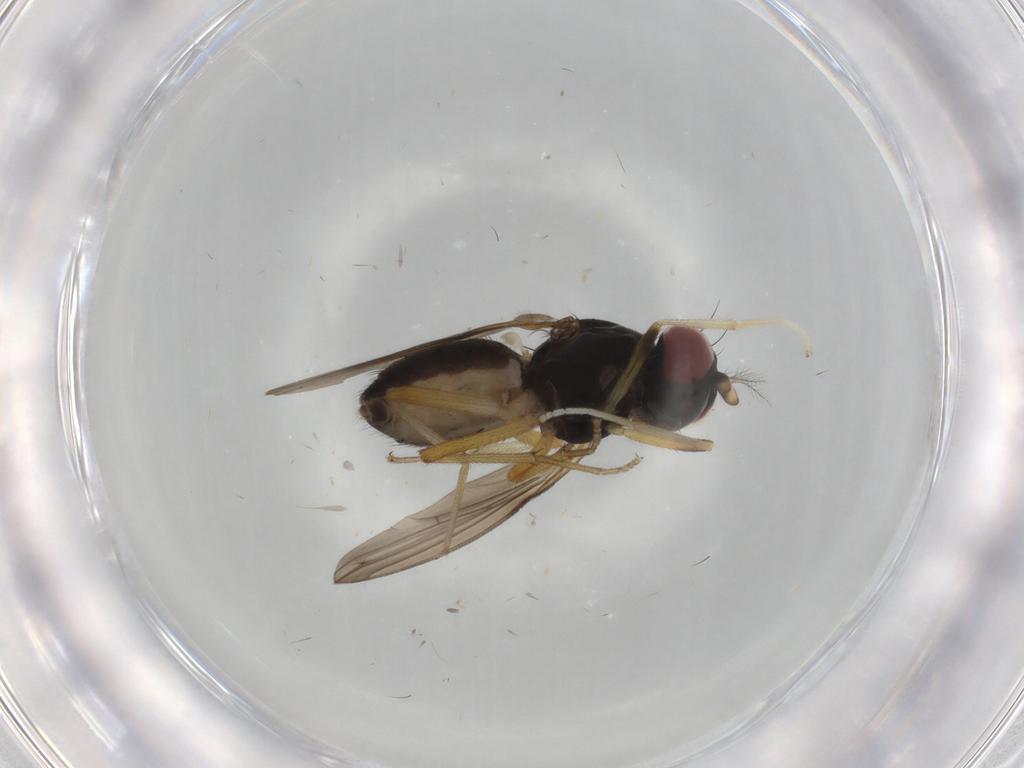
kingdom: Animalia
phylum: Arthropoda
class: Insecta
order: Diptera
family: Lauxaniidae
